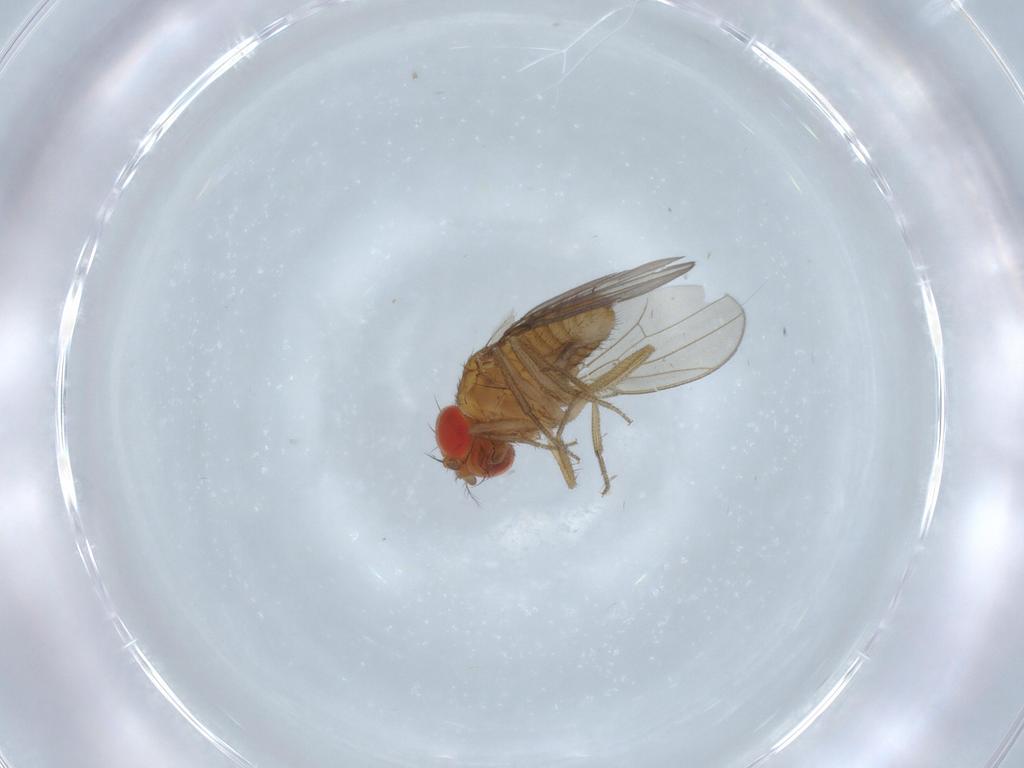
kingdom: Animalia
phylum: Arthropoda
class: Insecta
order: Diptera
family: Drosophilidae
